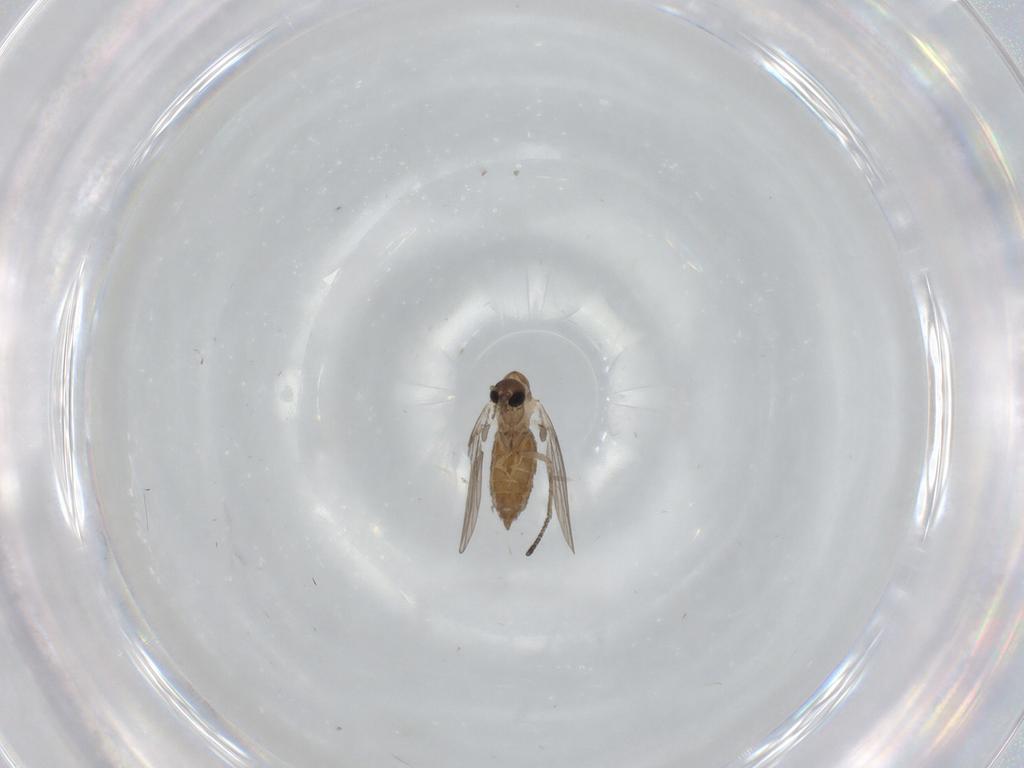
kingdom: Animalia
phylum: Arthropoda
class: Insecta
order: Diptera
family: Psychodidae
